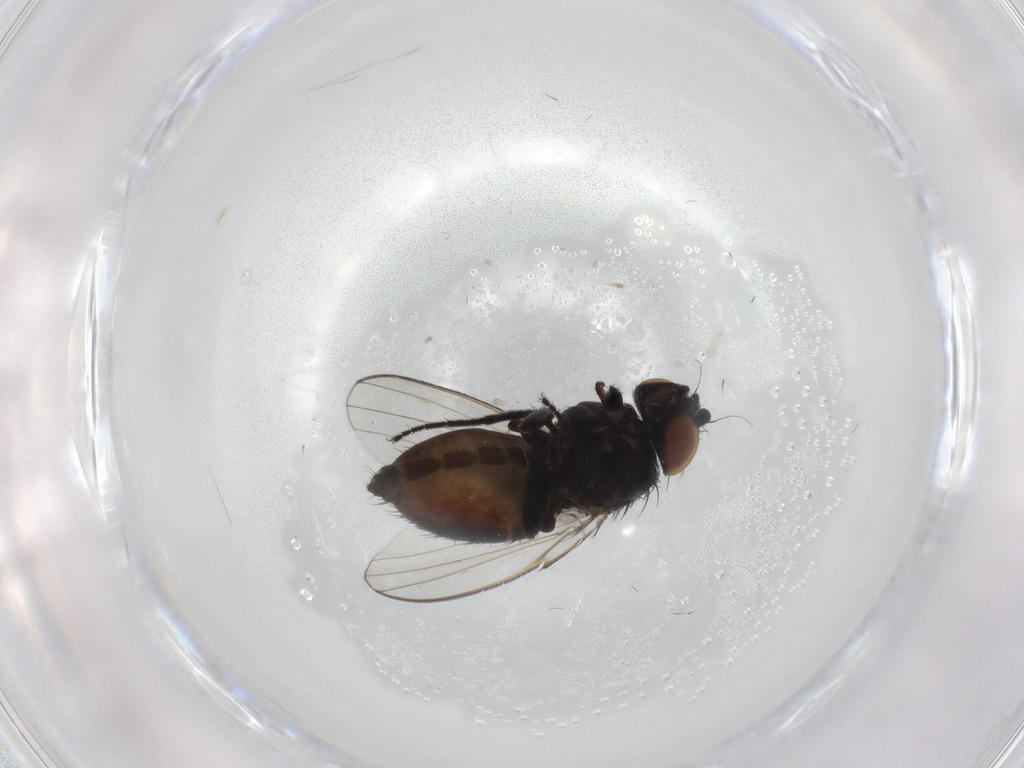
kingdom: Animalia
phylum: Arthropoda
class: Insecta
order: Diptera
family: Milichiidae
